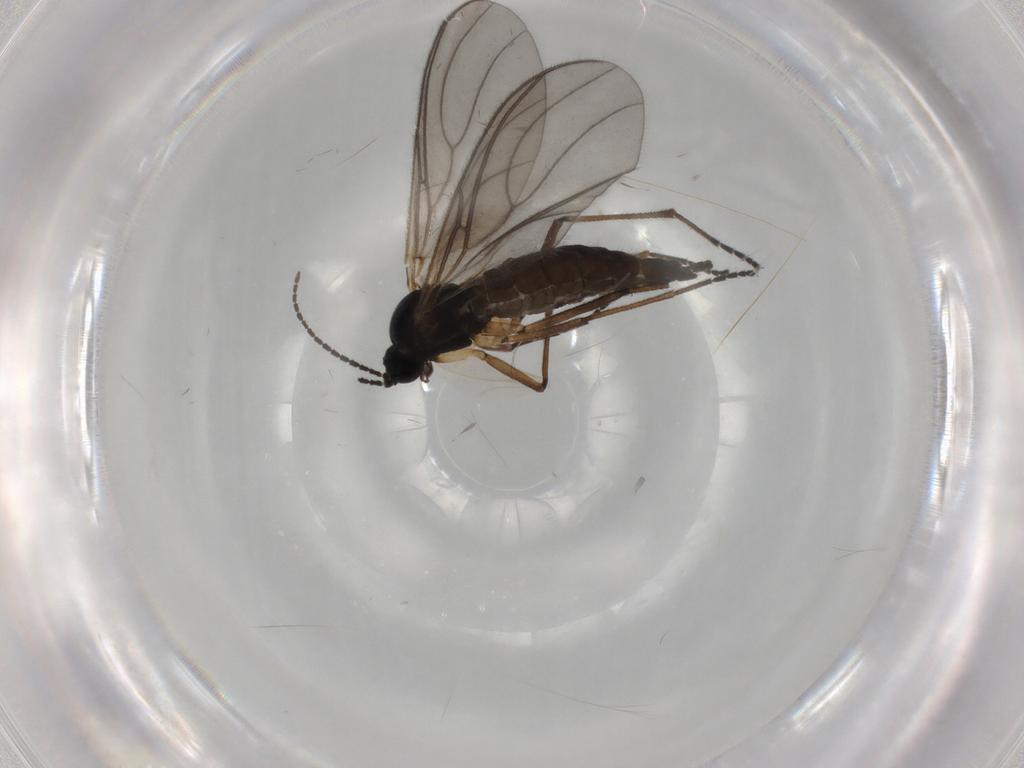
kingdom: Animalia
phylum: Arthropoda
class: Insecta
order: Diptera
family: Sciaridae
